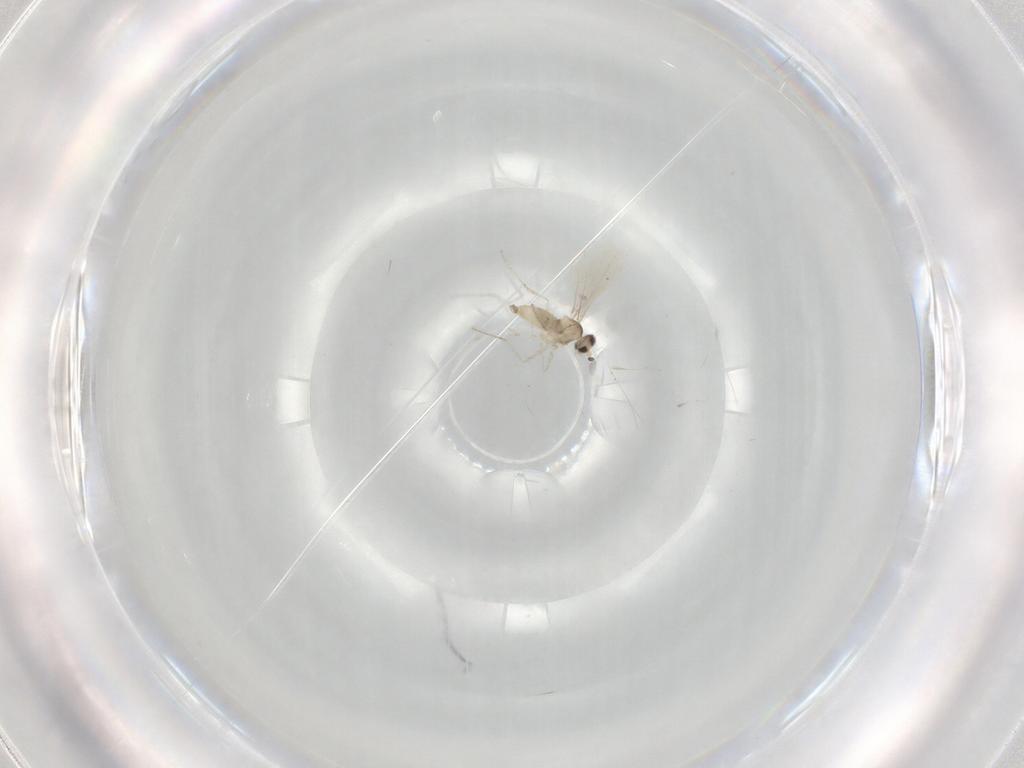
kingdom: Animalia
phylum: Arthropoda
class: Insecta
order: Diptera
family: Cecidomyiidae
